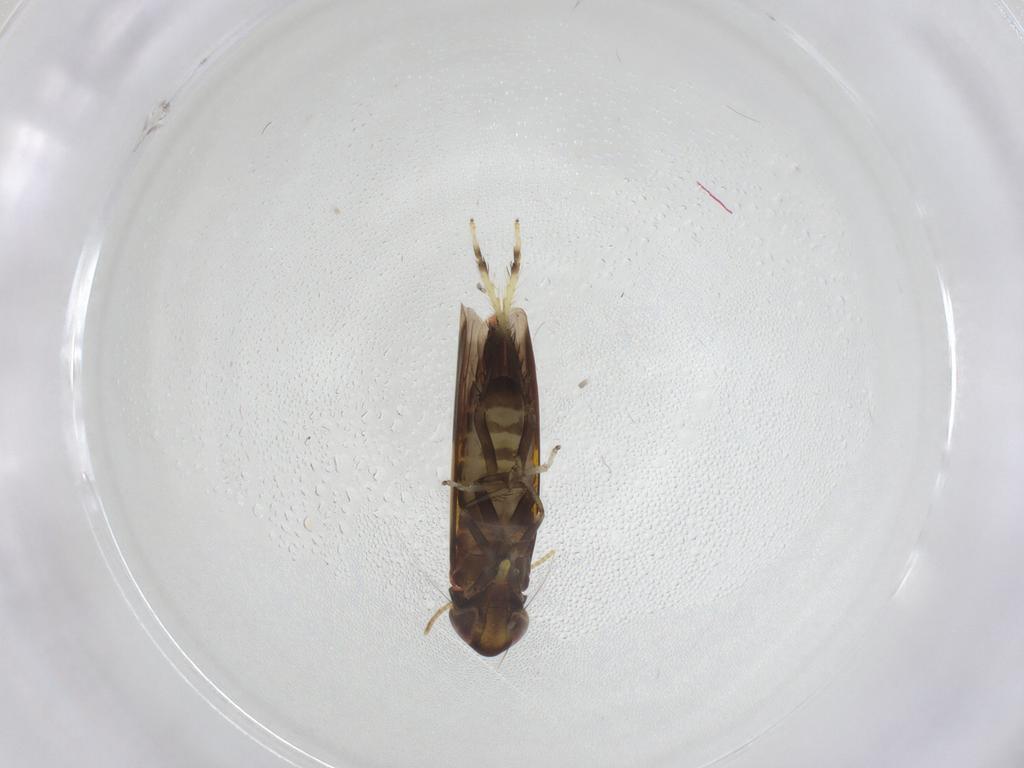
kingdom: Animalia
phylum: Arthropoda
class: Insecta
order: Hemiptera
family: Cicadellidae
